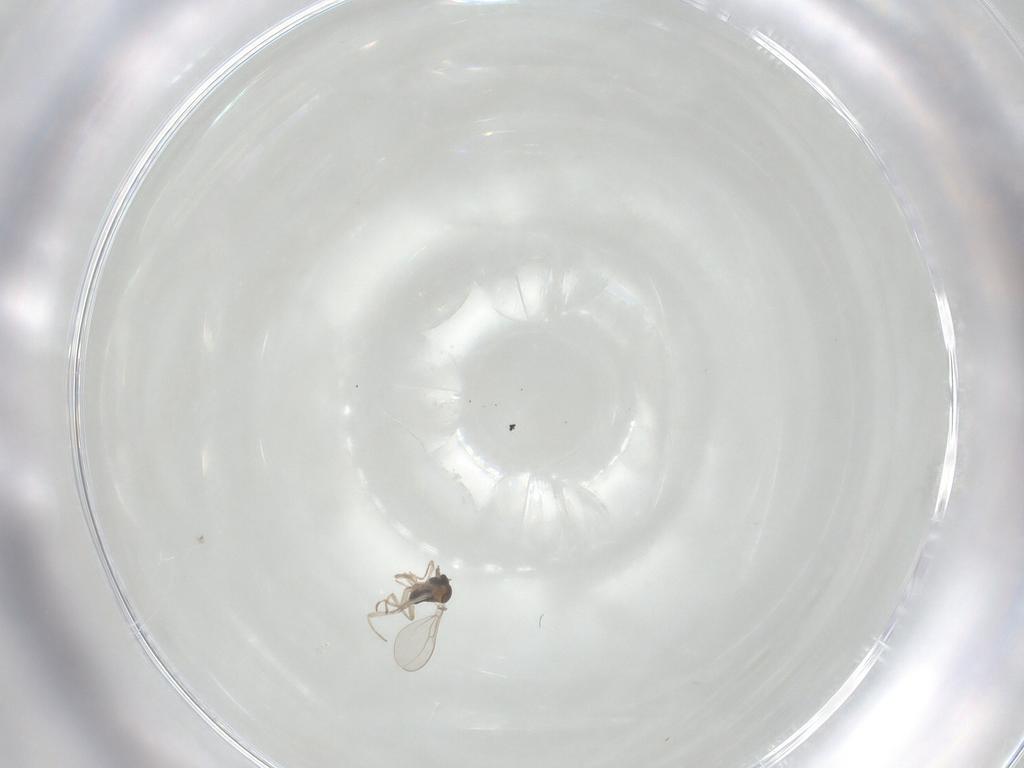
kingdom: Animalia
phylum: Arthropoda
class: Insecta
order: Diptera
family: Cecidomyiidae
